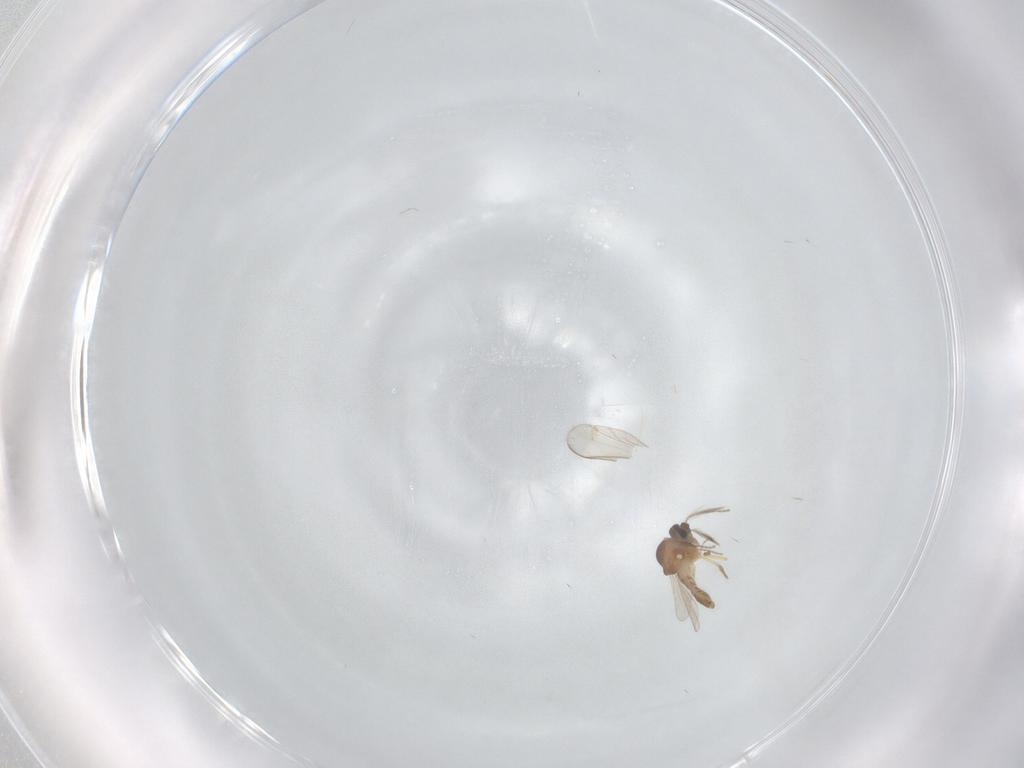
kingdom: Animalia
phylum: Arthropoda
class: Insecta
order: Diptera
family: Ceratopogonidae
